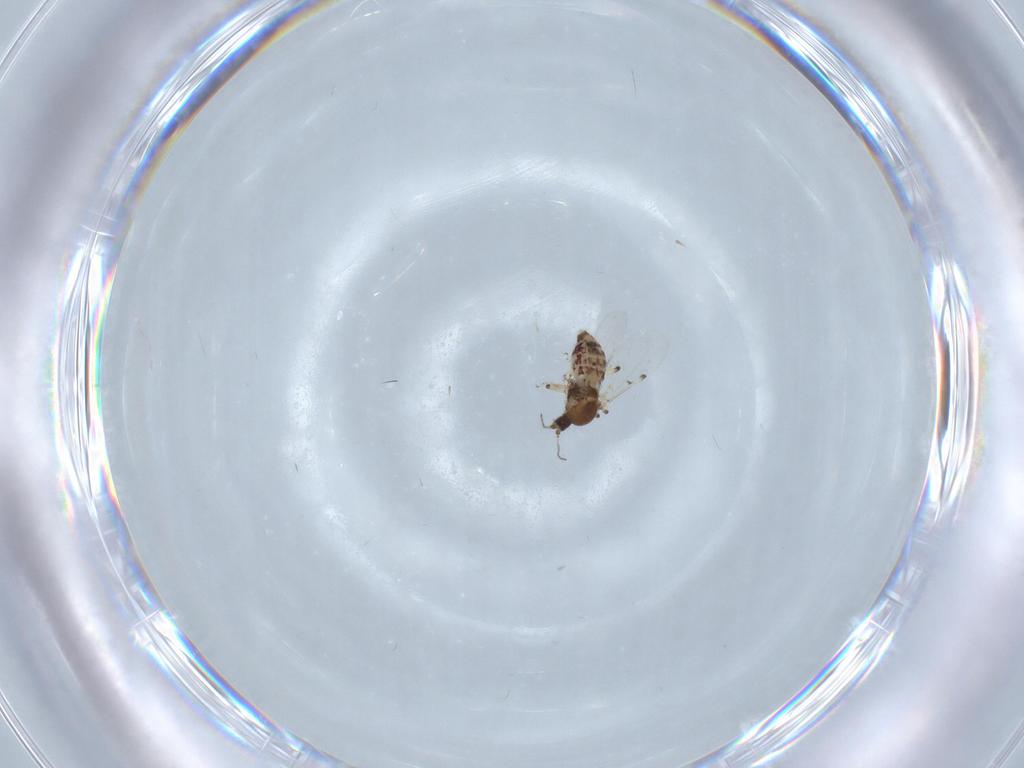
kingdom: Animalia
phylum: Arthropoda
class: Insecta
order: Diptera
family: Ceratopogonidae
